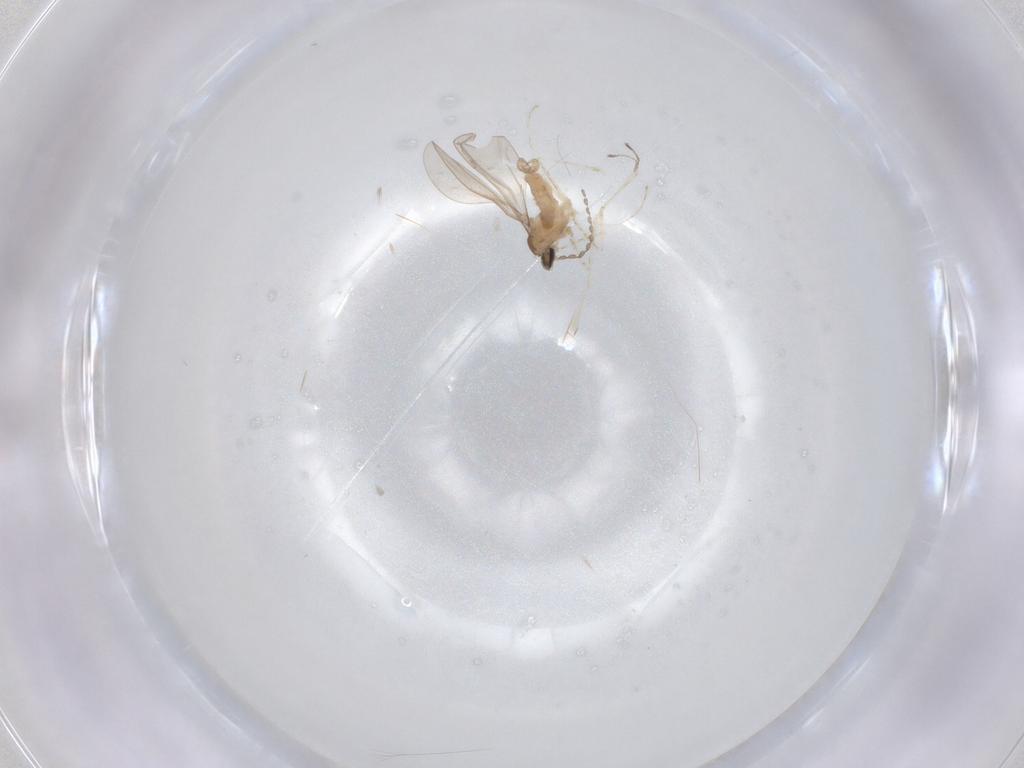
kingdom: Animalia
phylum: Arthropoda
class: Insecta
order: Diptera
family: Cecidomyiidae
